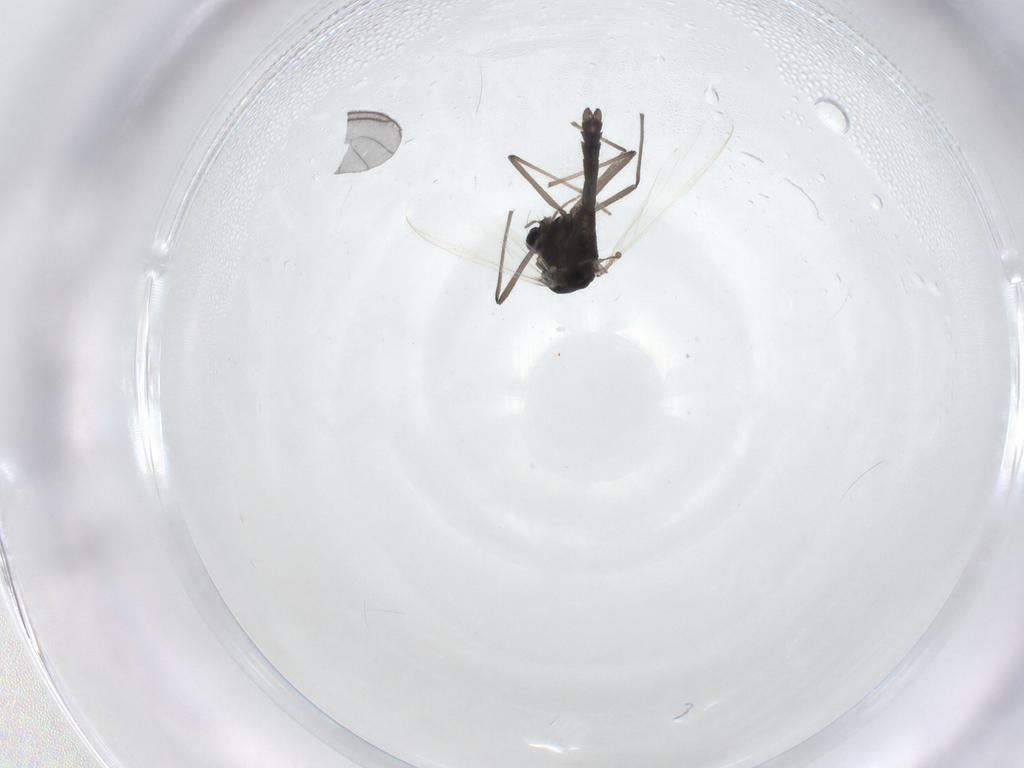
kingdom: Animalia
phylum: Arthropoda
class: Insecta
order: Diptera
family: Chironomidae
